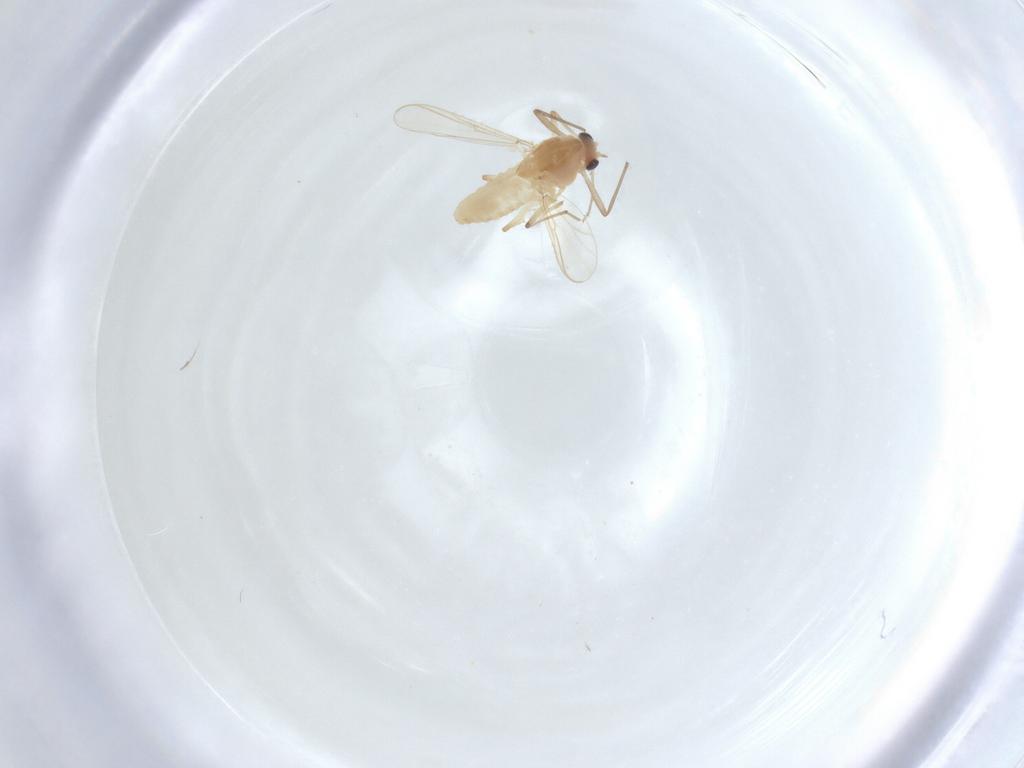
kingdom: Animalia
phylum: Arthropoda
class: Insecta
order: Diptera
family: Chironomidae
